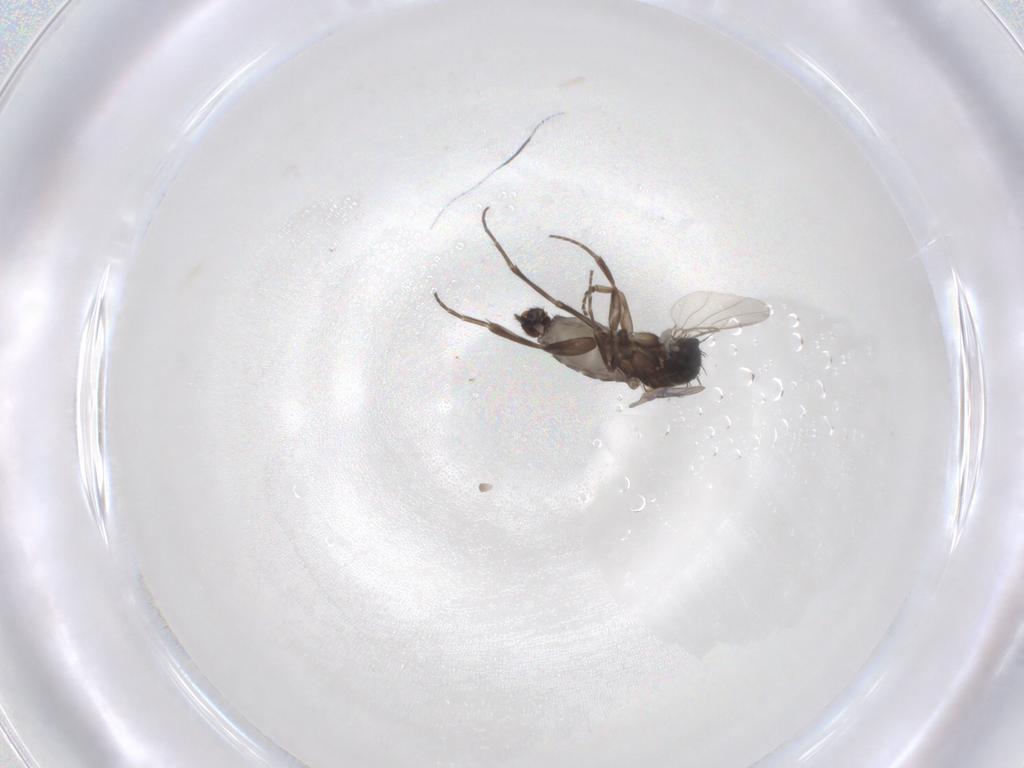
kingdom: Animalia
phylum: Arthropoda
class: Insecta
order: Diptera
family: Phoridae
